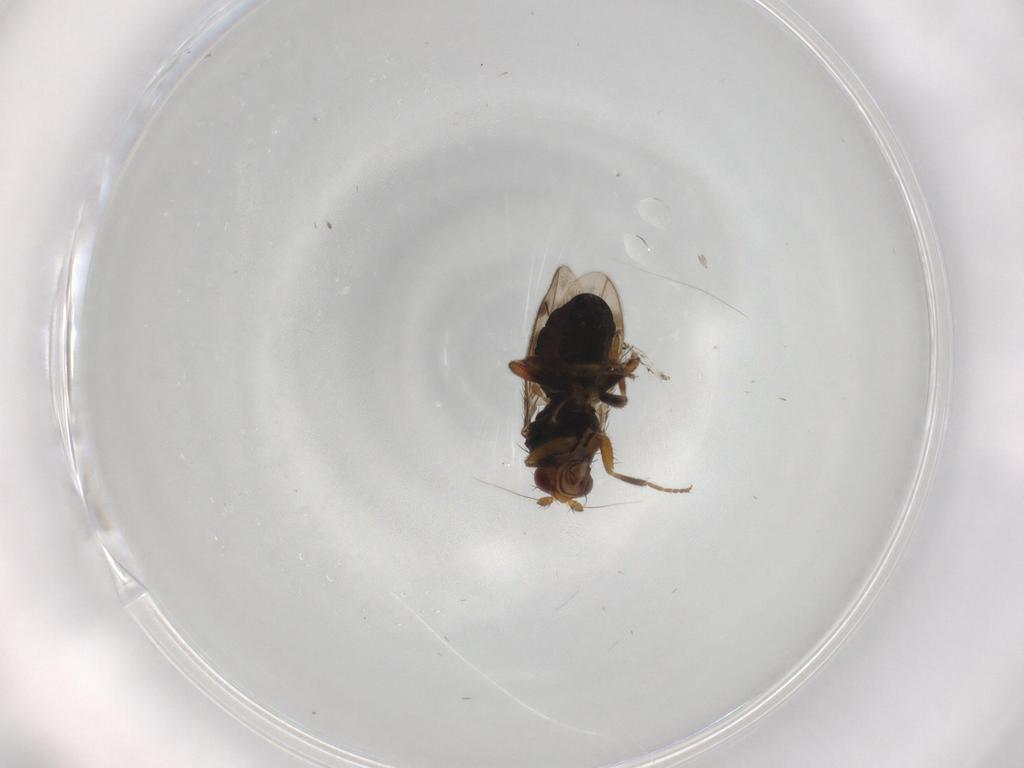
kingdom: Animalia
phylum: Arthropoda
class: Insecta
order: Diptera
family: Sphaeroceridae
